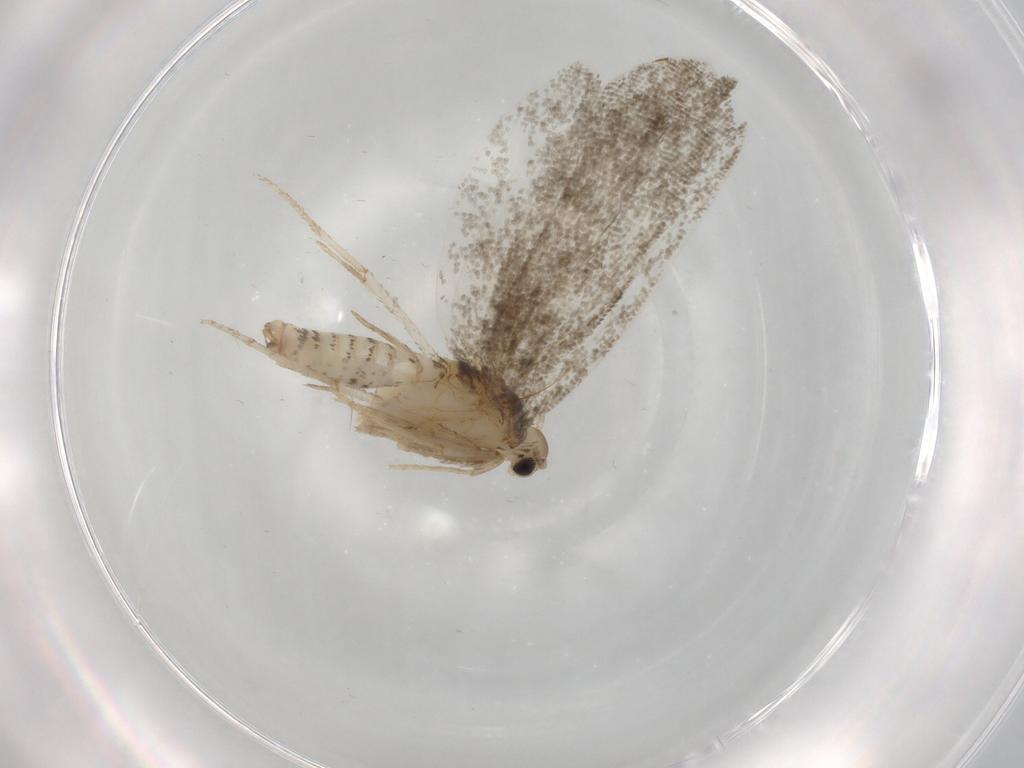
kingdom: Animalia
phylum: Arthropoda
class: Insecta
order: Lepidoptera
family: Psychidae
